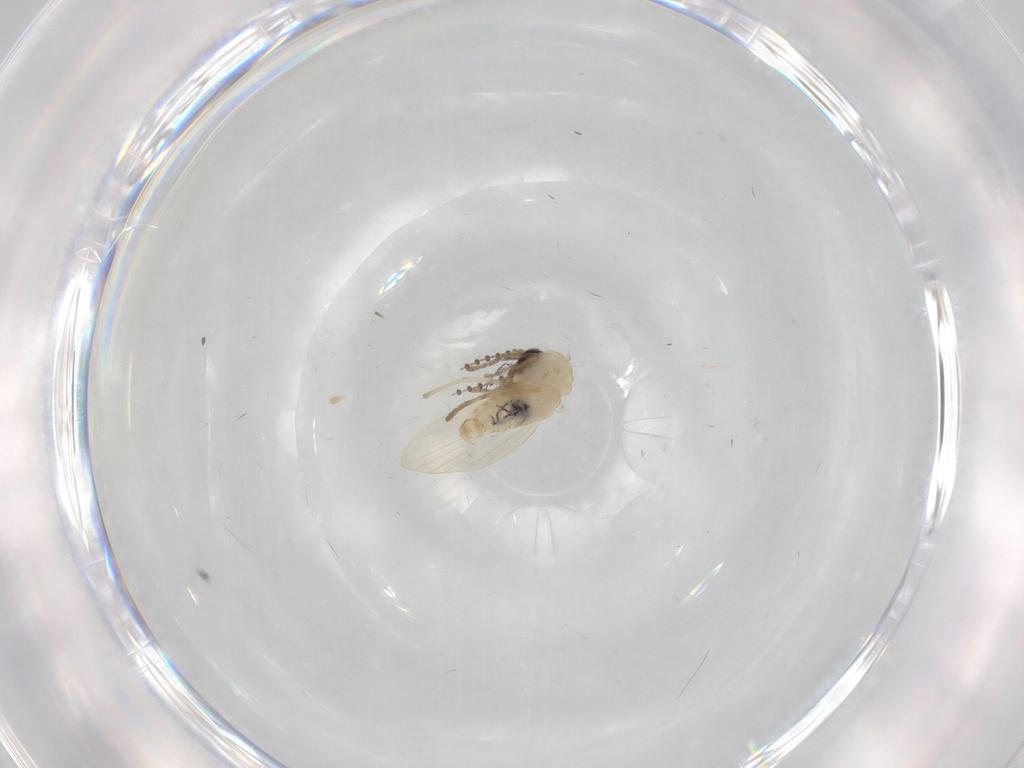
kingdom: Animalia
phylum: Arthropoda
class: Insecta
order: Diptera
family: Psychodidae
